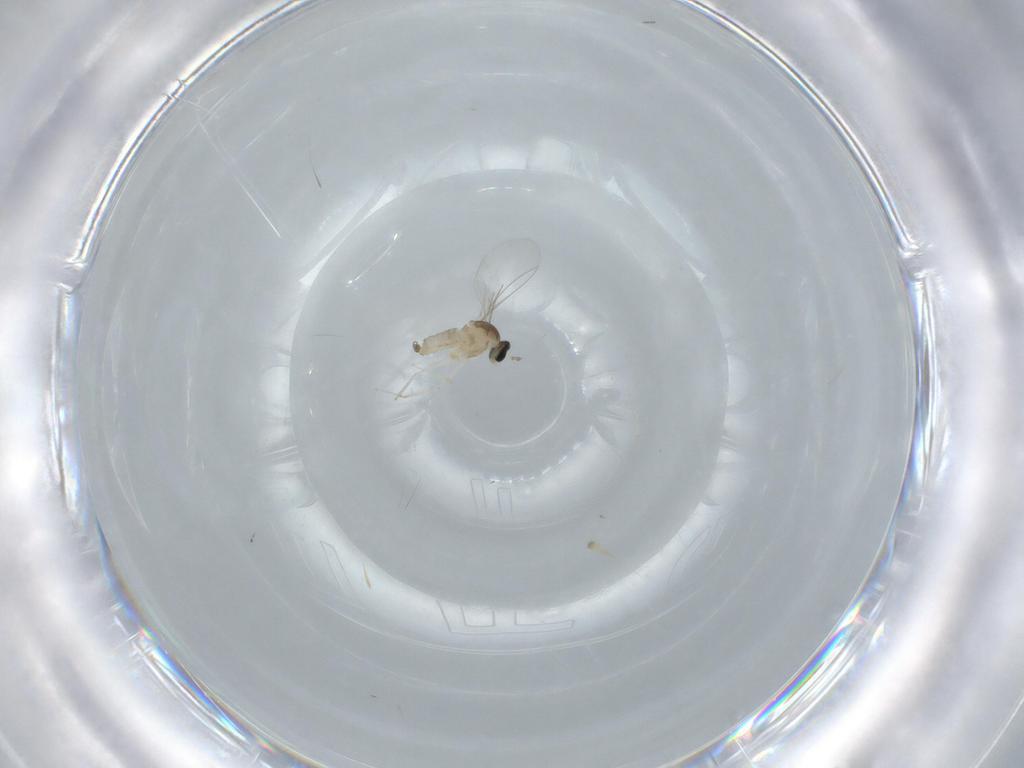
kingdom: Animalia
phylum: Arthropoda
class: Insecta
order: Diptera
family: Cecidomyiidae
